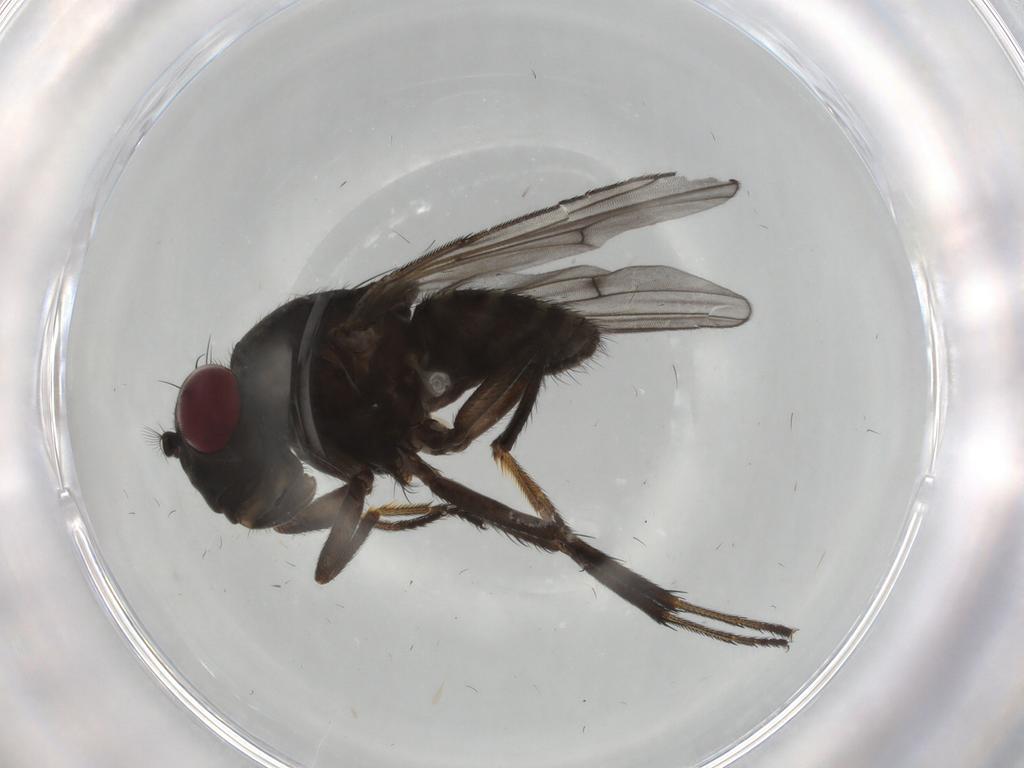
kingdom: Animalia
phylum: Arthropoda
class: Insecta
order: Diptera
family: Ephydridae
